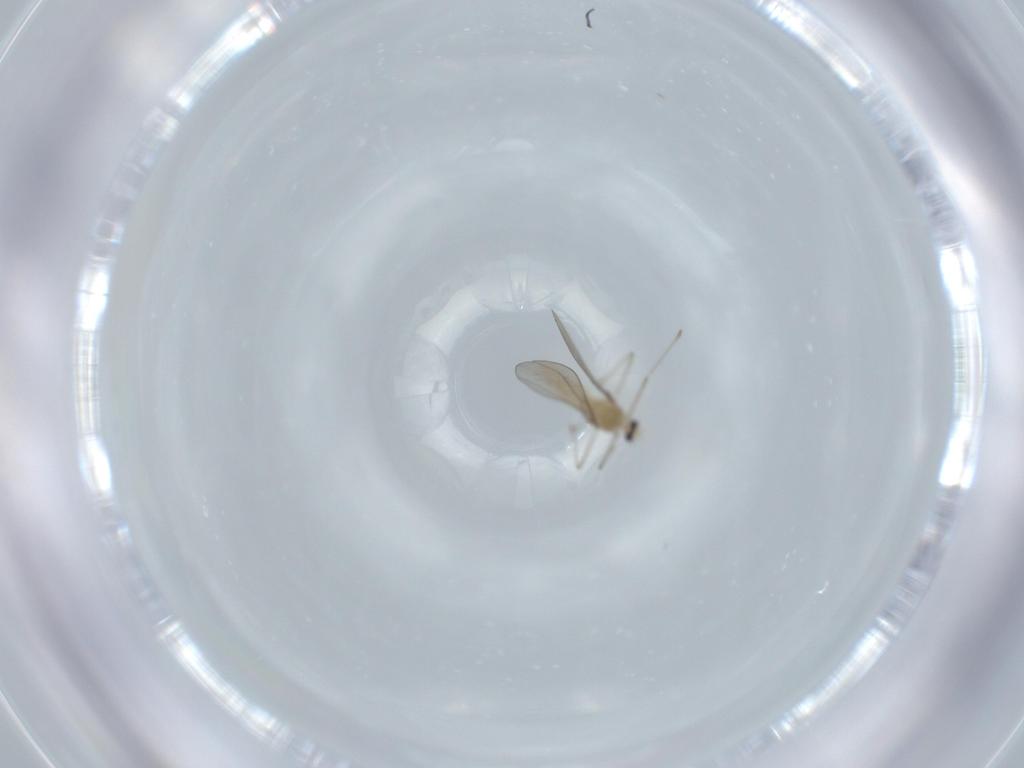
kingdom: Animalia
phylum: Arthropoda
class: Insecta
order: Diptera
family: Cecidomyiidae
